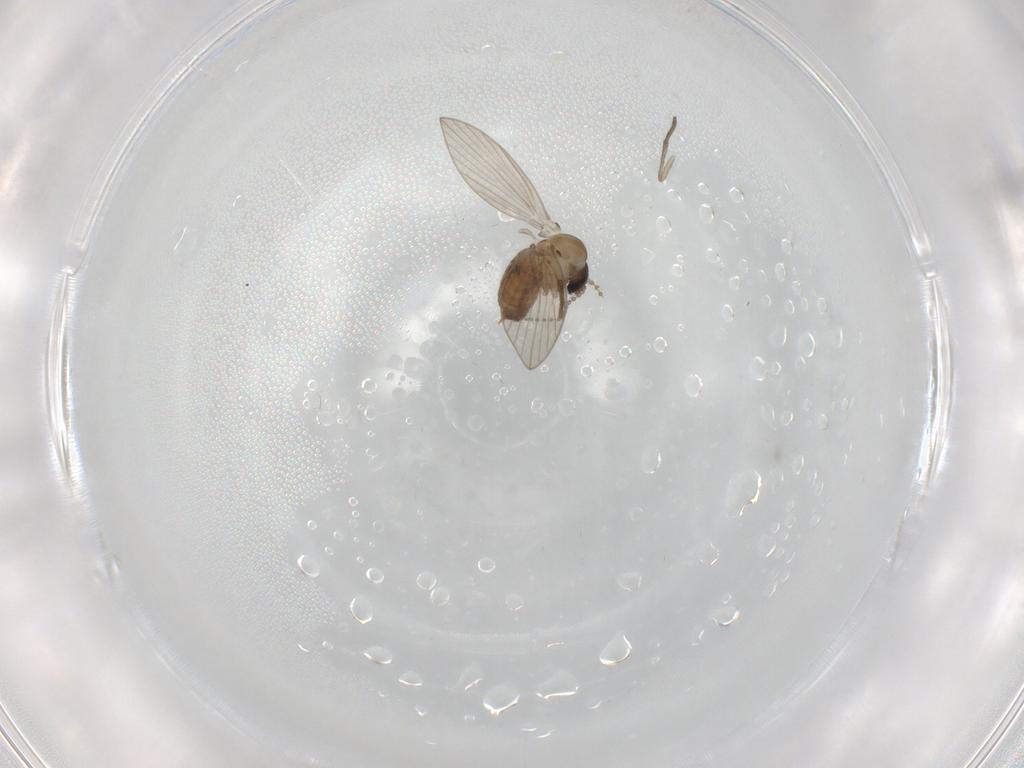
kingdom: Animalia
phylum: Arthropoda
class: Insecta
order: Diptera
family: Psychodidae
